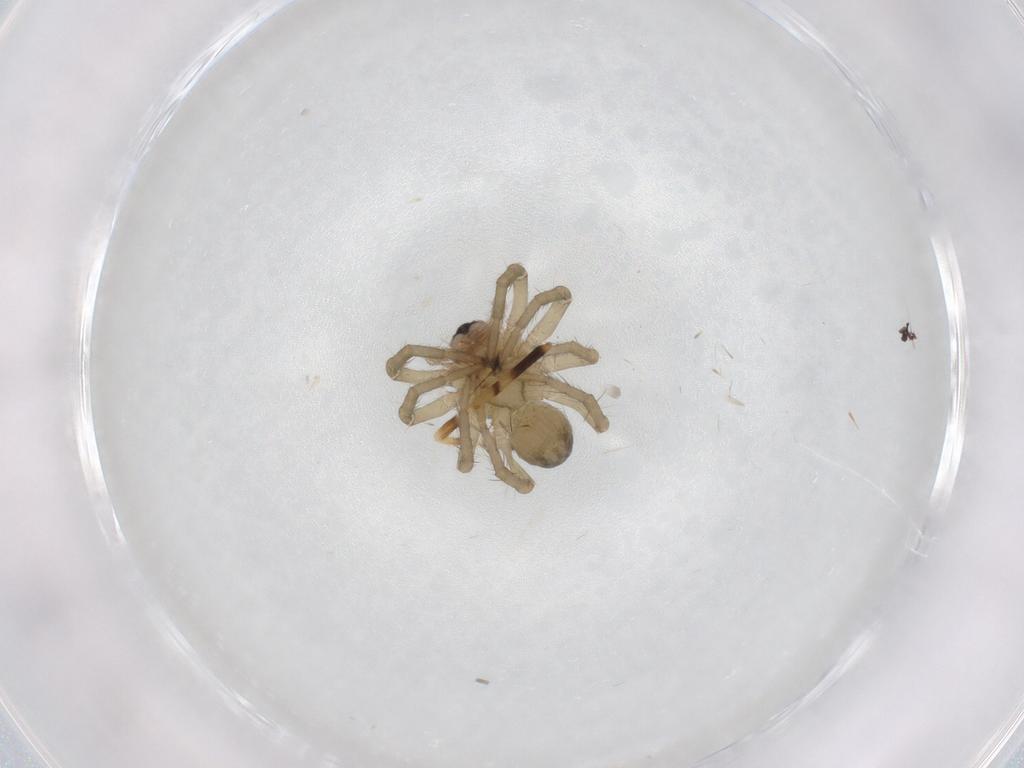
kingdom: Animalia
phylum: Arthropoda
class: Arachnida
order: Araneae
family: Lycosidae
